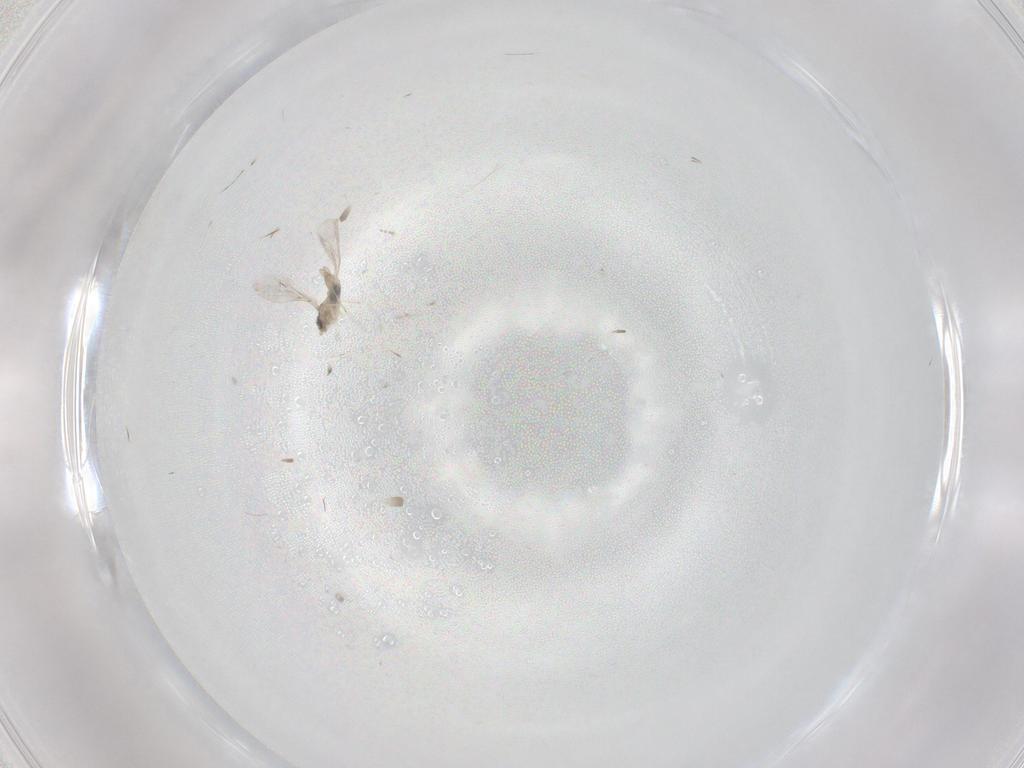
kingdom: Animalia
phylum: Arthropoda
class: Insecta
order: Diptera
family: Cecidomyiidae
